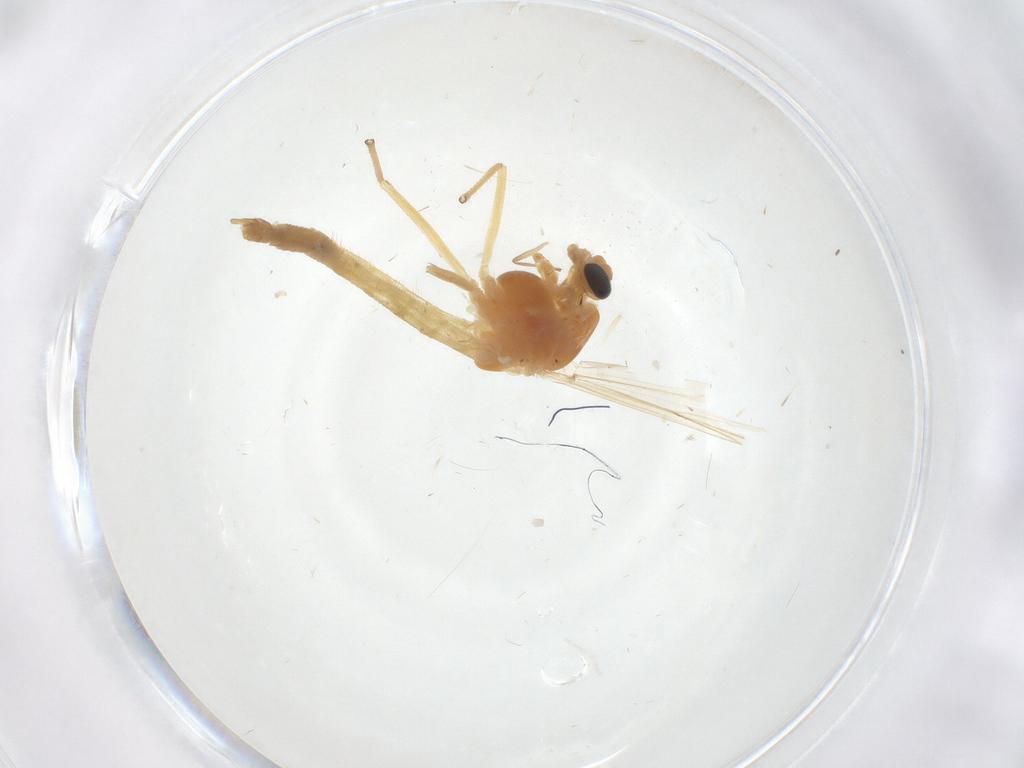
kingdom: Animalia
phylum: Arthropoda
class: Insecta
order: Diptera
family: Chironomidae
